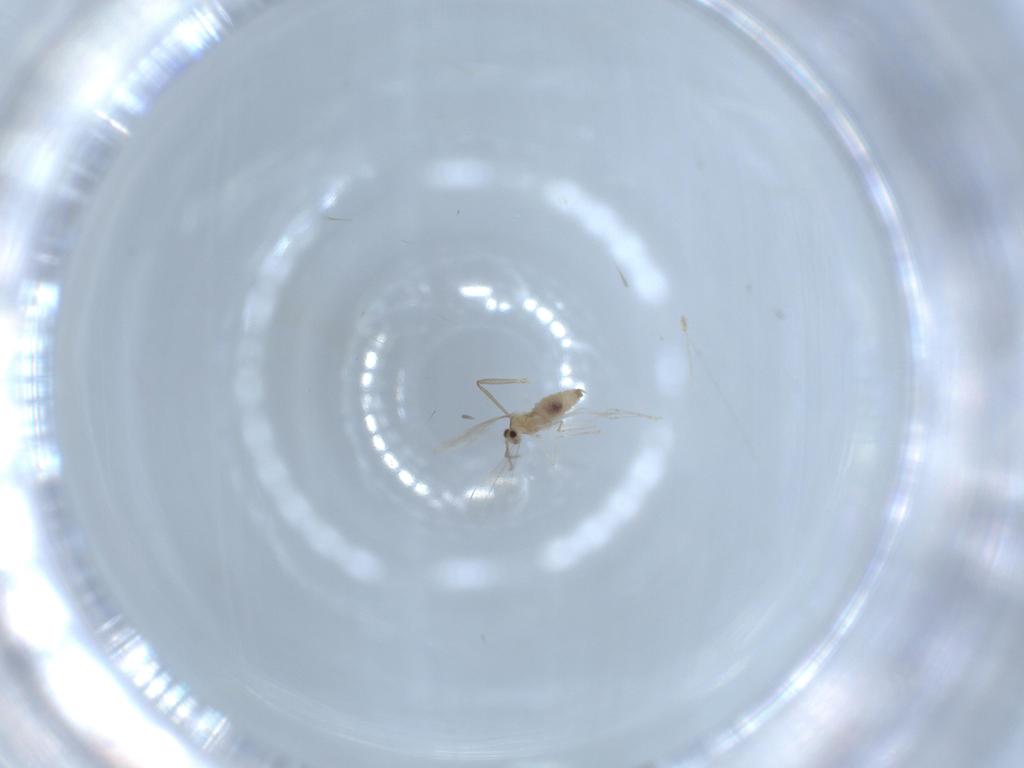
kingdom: Animalia
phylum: Arthropoda
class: Insecta
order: Diptera
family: Cecidomyiidae
